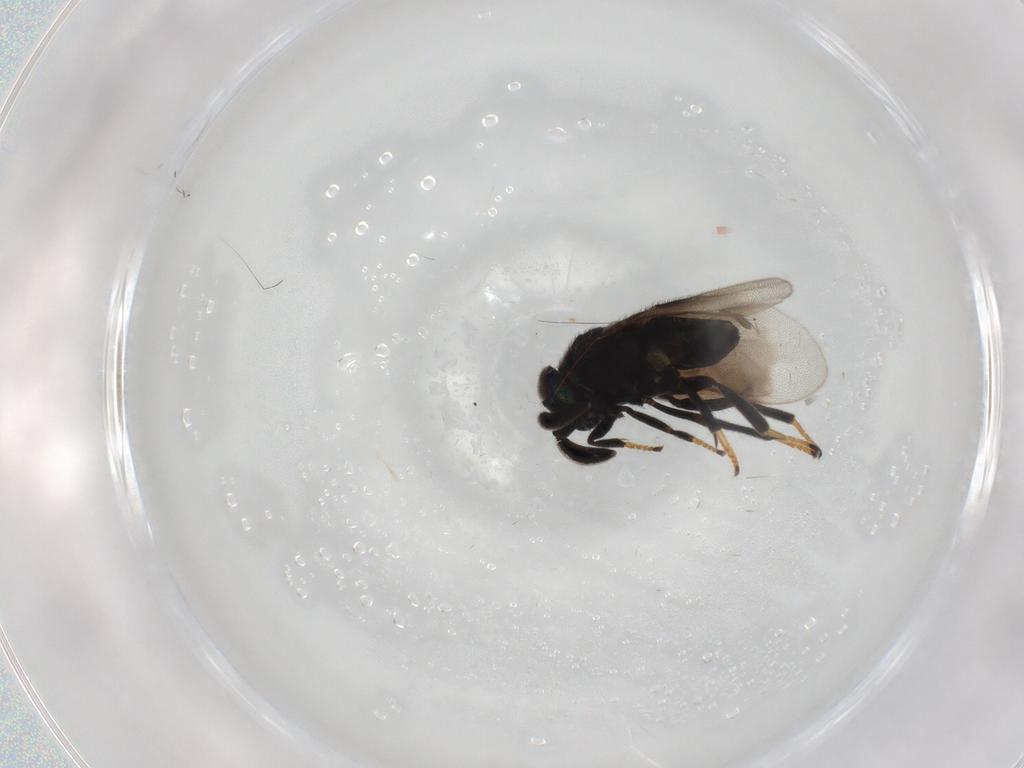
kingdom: Animalia
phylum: Arthropoda
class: Insecta
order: Hymenoptera
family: Encyrtidae
